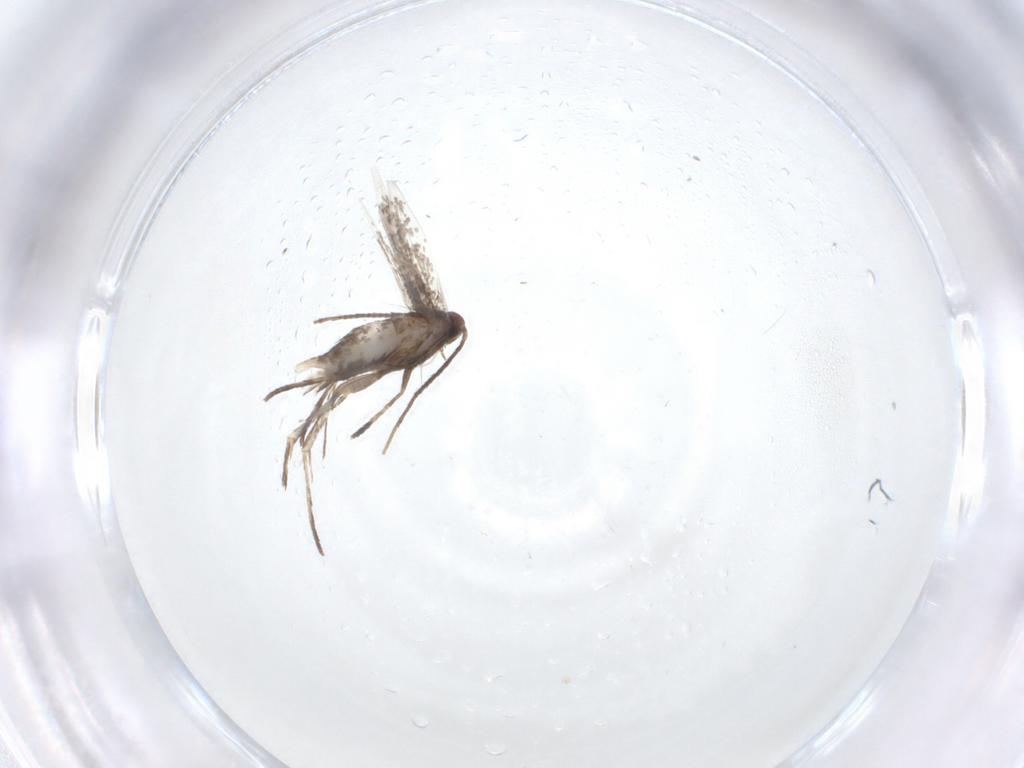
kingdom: Animalia
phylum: Arthropoda
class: Insecta
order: Lepidoptera
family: Gracillariidae
